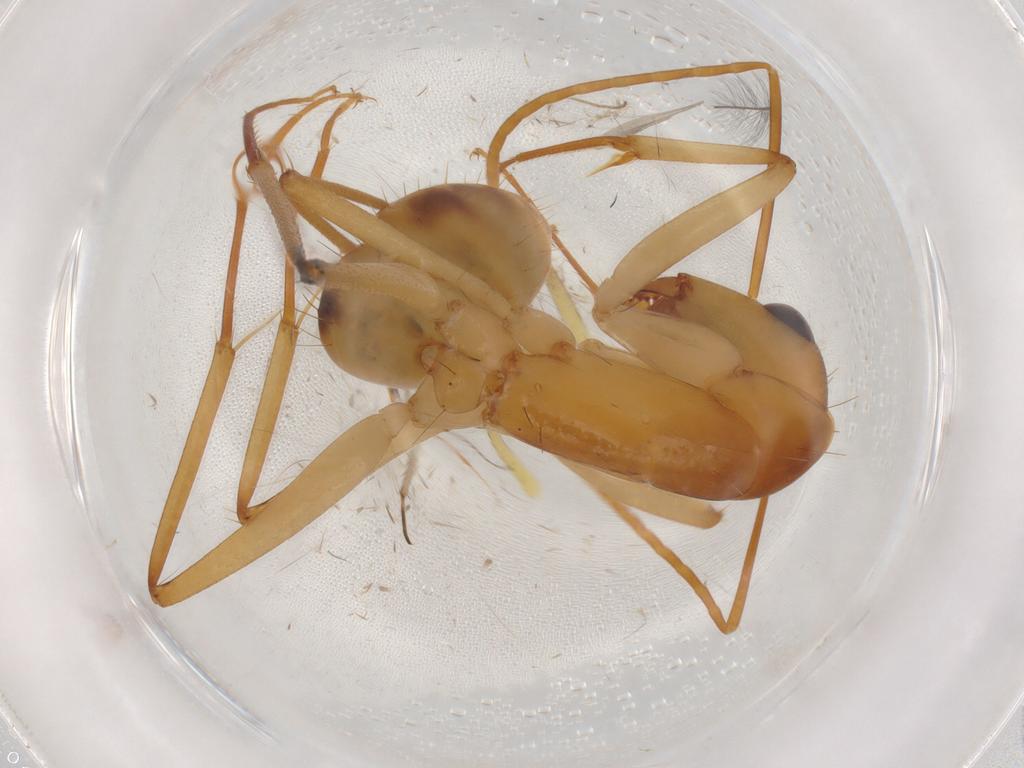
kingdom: Animalia
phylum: Arthropoda
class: Insecta
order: Hymenoptera
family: Formicidae
